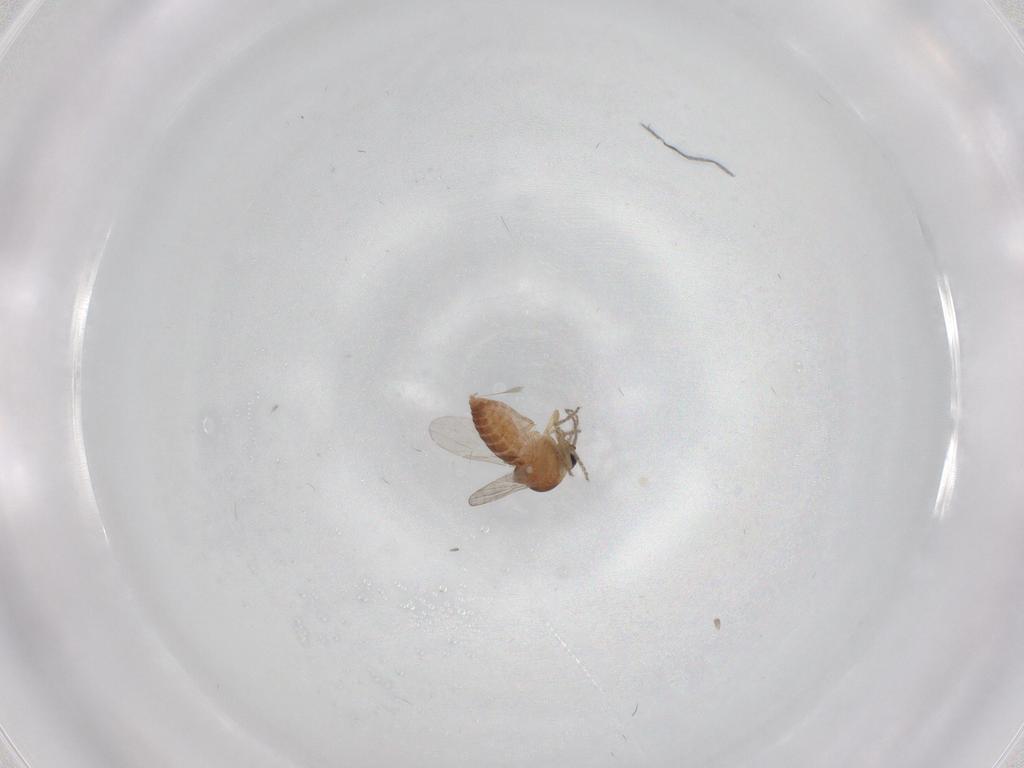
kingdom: Animalia
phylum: Arthropoda
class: Insecta
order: Diptera
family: Ceratopogonidae
